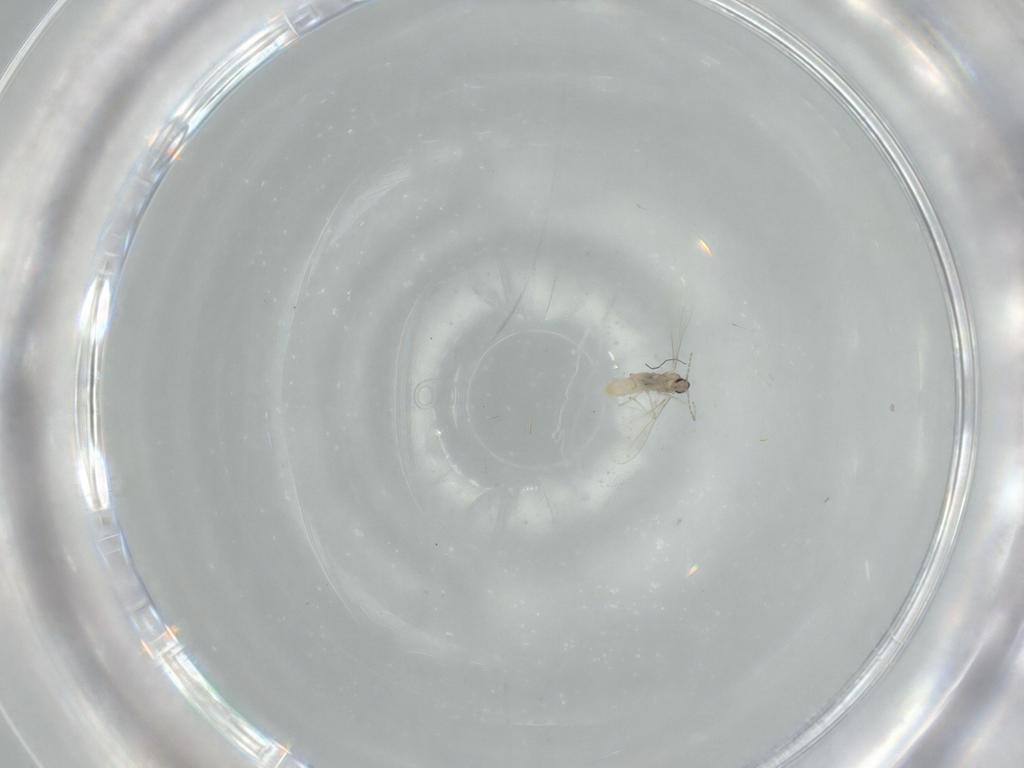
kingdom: Animalia
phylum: Arthropoda
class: Insecta
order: Diptera
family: Cecidomyiidae
